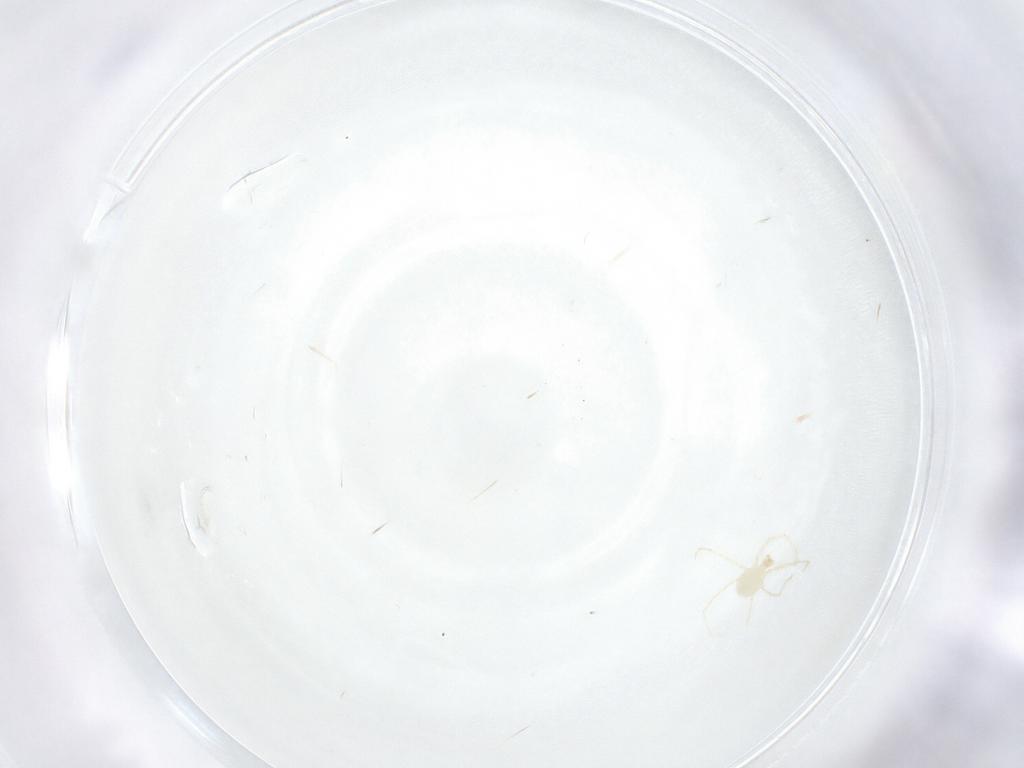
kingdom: Animalia
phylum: Arthropoda
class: Arachnida
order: Trombidiformes
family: Erythraeidae
